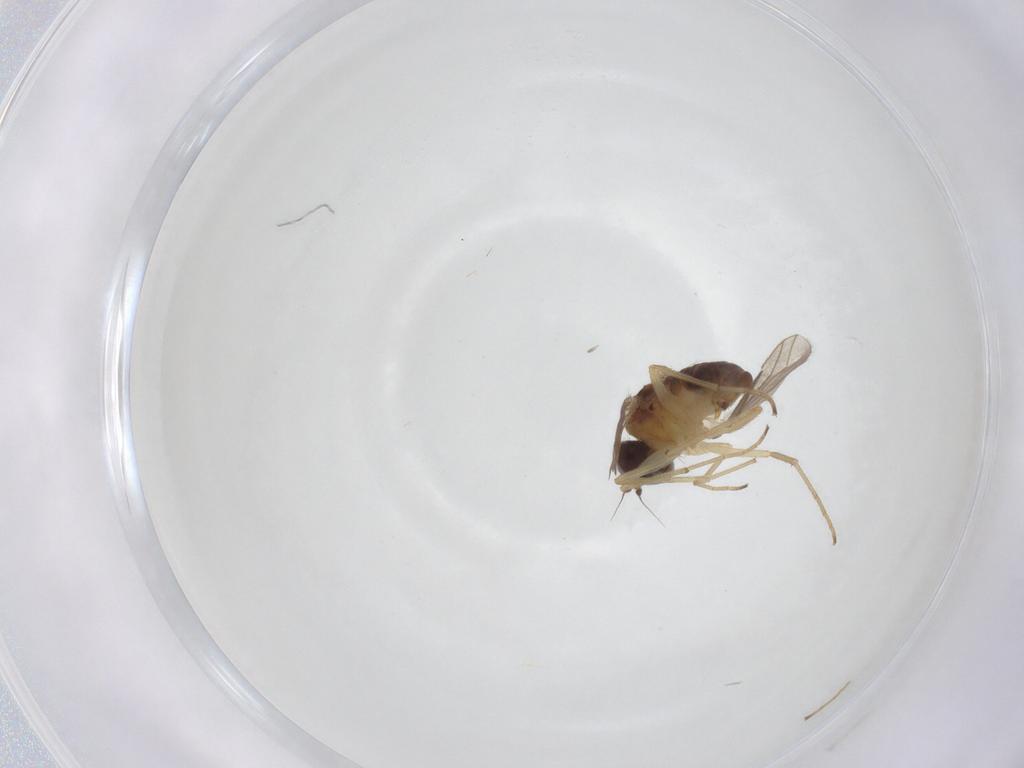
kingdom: Animalia
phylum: Arthropoda
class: Insecta
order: Diptera
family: Dolichopodidae
